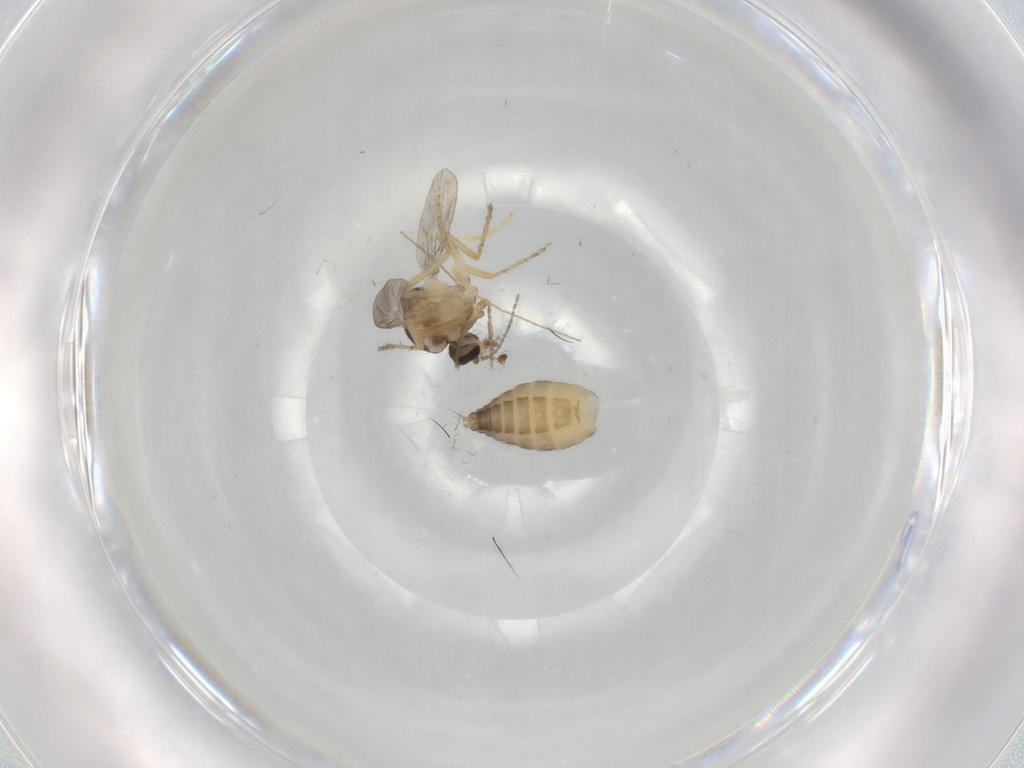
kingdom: Animalia
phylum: Arthropoda
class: Insecta
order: Diptera
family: Ceratopogonidae
